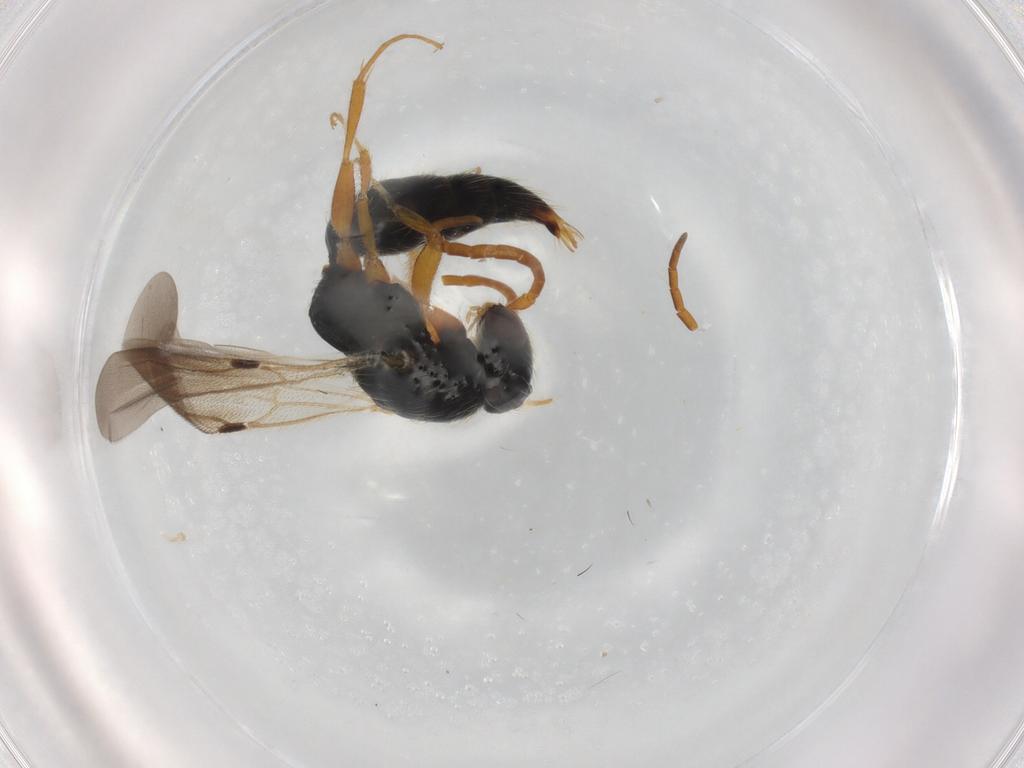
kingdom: Animalia
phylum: Arthropoda
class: Insecta
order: Hymenoptera
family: Bethylidae
